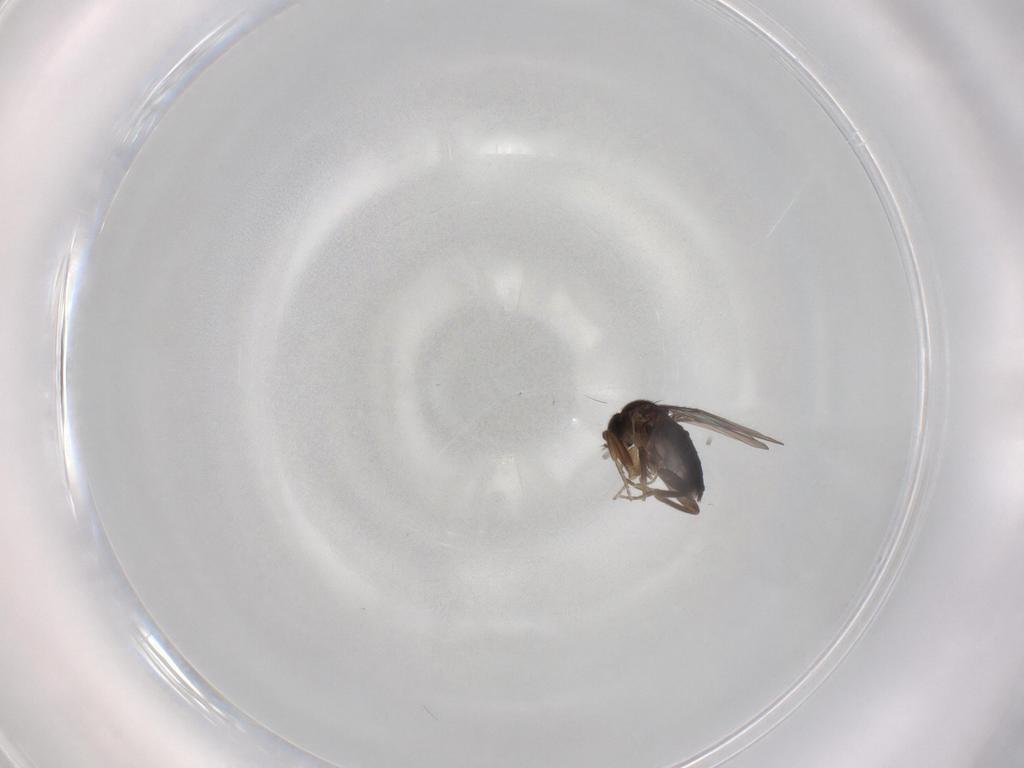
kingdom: Animalia
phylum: Arthropoda
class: Insecta
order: Diptera
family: Phoridae
